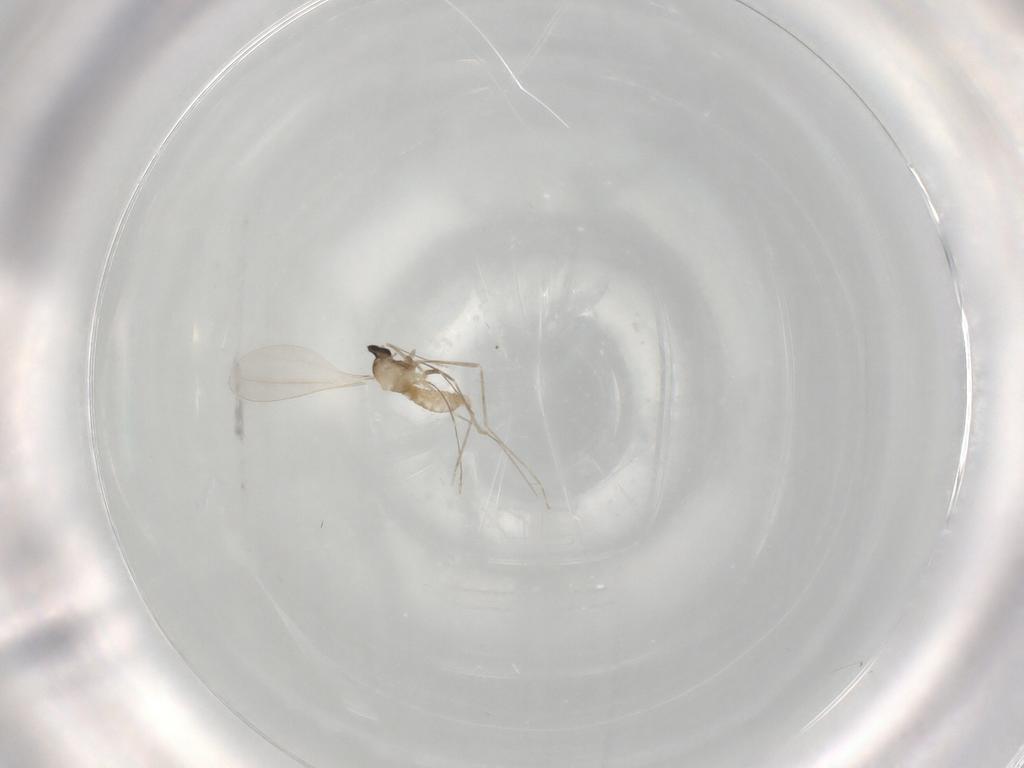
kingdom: Animalia
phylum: Arthropoda
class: Insecta
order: Diptera
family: Cecidomyiidae
